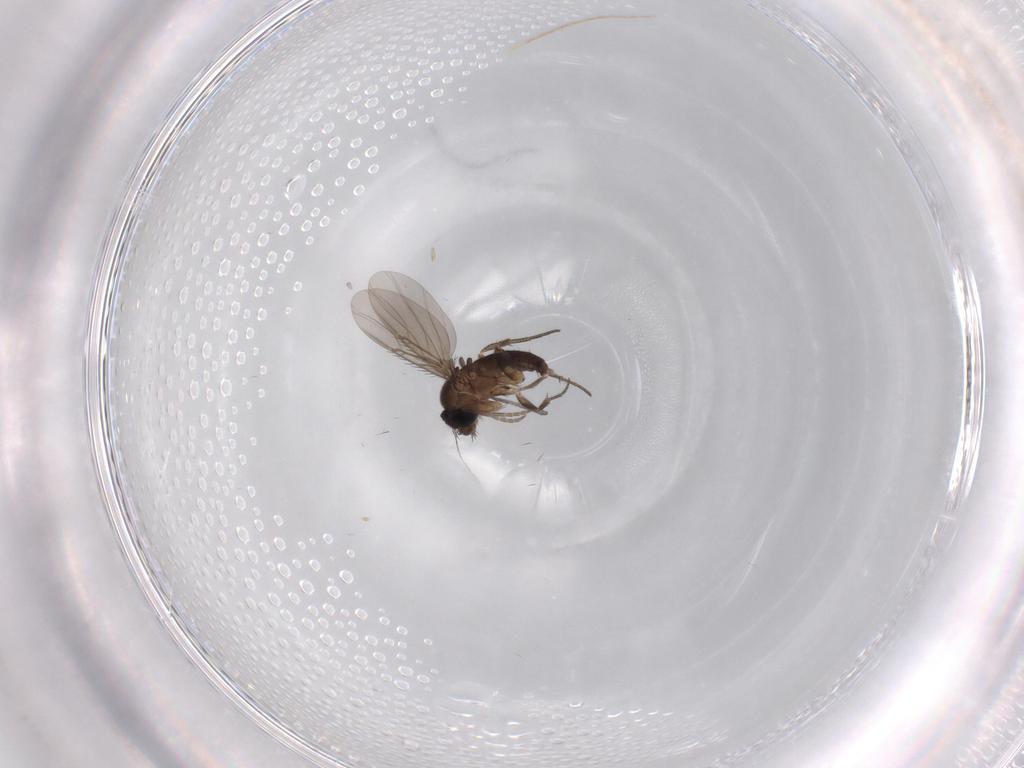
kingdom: Animalia
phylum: Arthropoda
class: Insecta
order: Diptera
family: Phoridae
